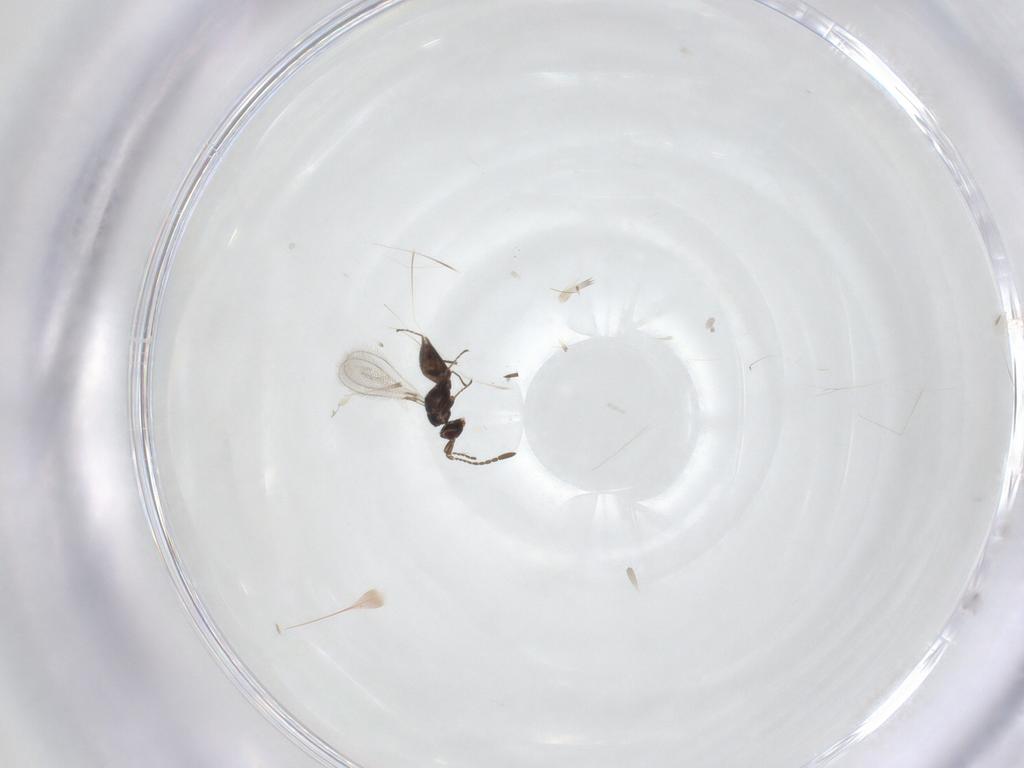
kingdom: Animalia
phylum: Arthropoda
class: Insecta
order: Hymenoptera
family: Mymaridae
